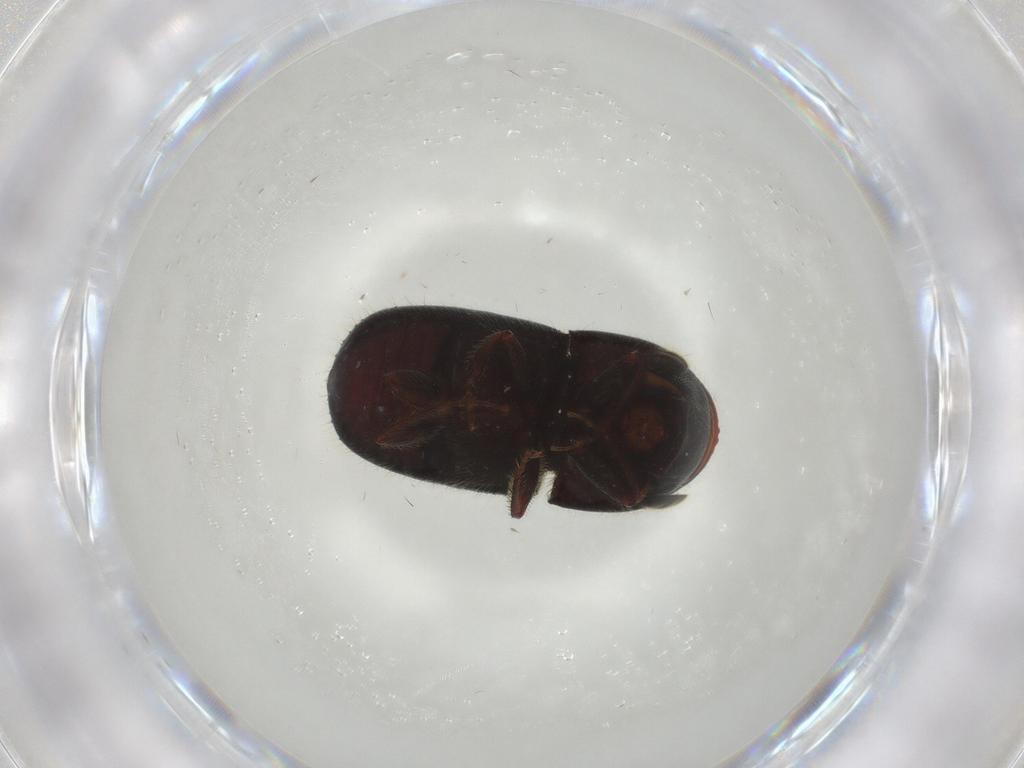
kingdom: Animalia
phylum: Arthropoda
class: Insecta
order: Coleoptera
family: Curculionidae
